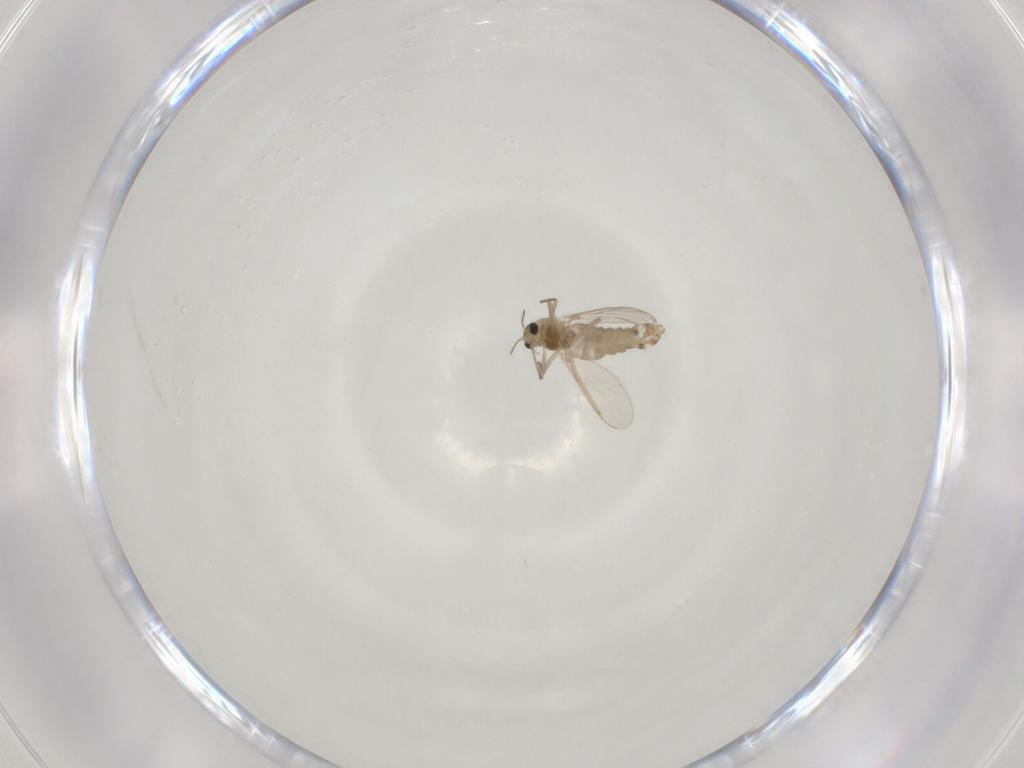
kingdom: Animalia
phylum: Arthropoda
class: Insecta
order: Diptera
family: Chironomidae
